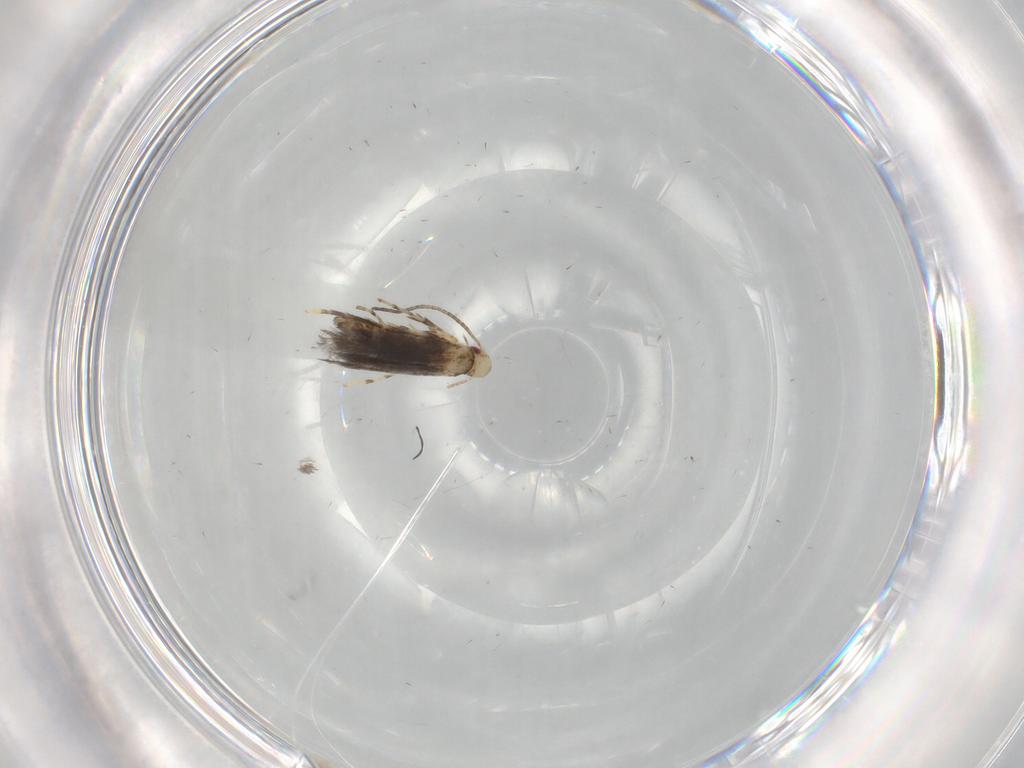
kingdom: Animalia
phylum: Arthropoda
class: Insecta
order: Lepidoptera
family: Gracillariidae
